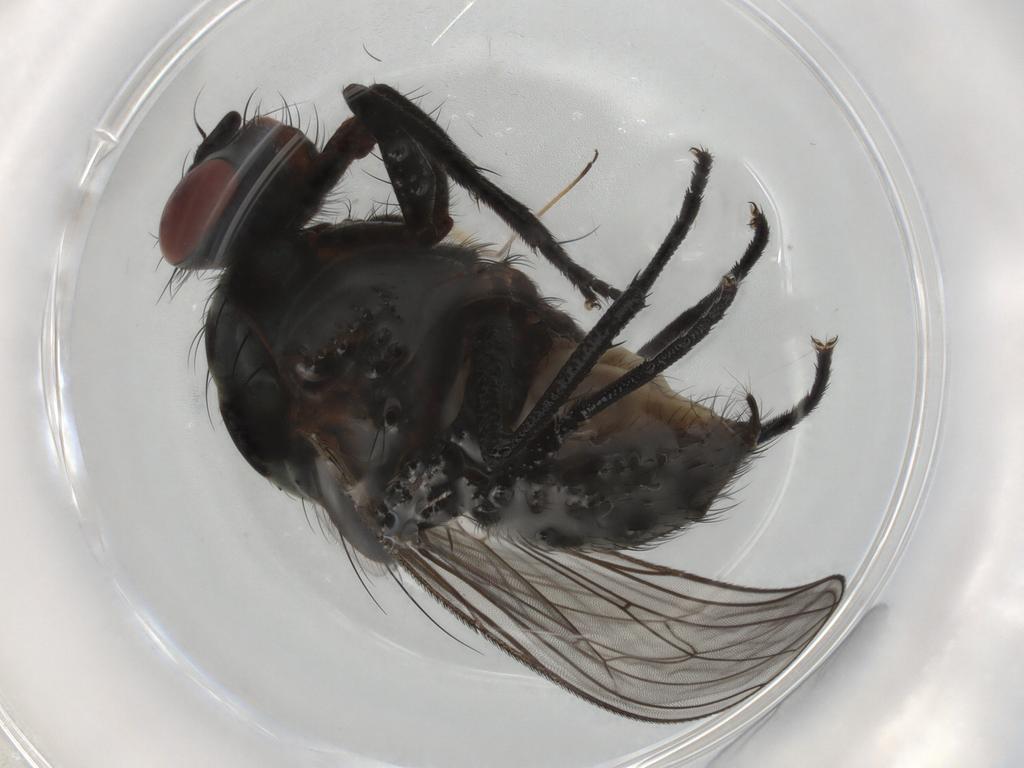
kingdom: Animalia
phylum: Arthropoda
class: Insecta
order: Diptera
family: Anthomyiidae
